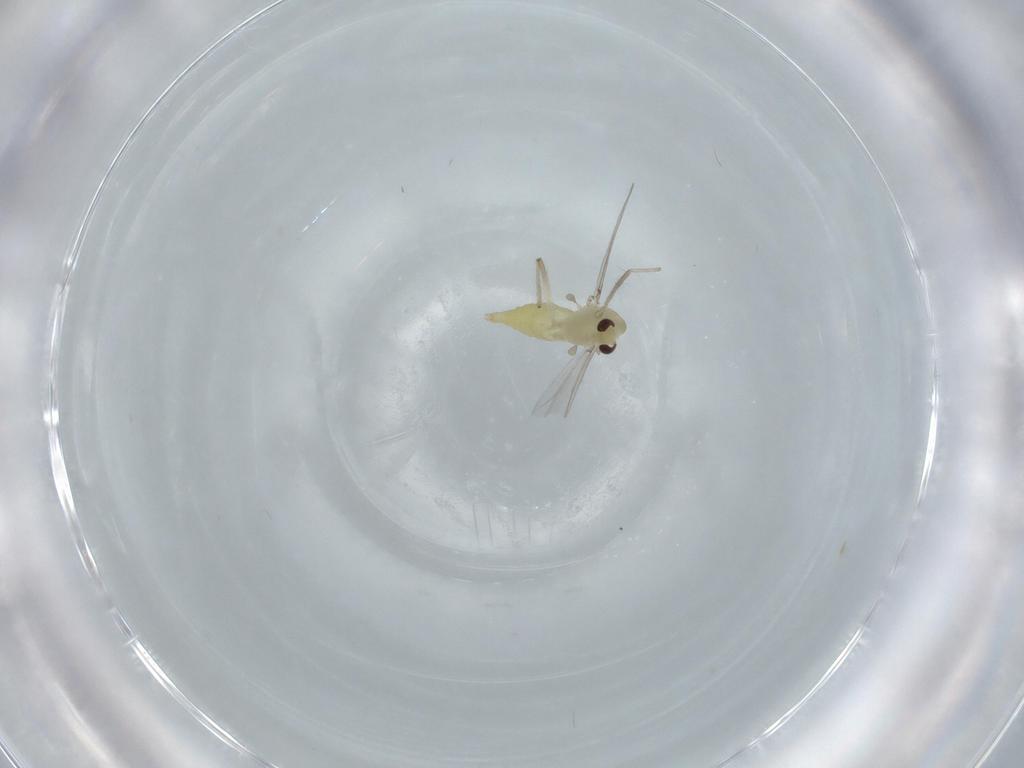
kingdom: Animalia
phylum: Arthropoda
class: Insecta
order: Diptera
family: Chironomidae
